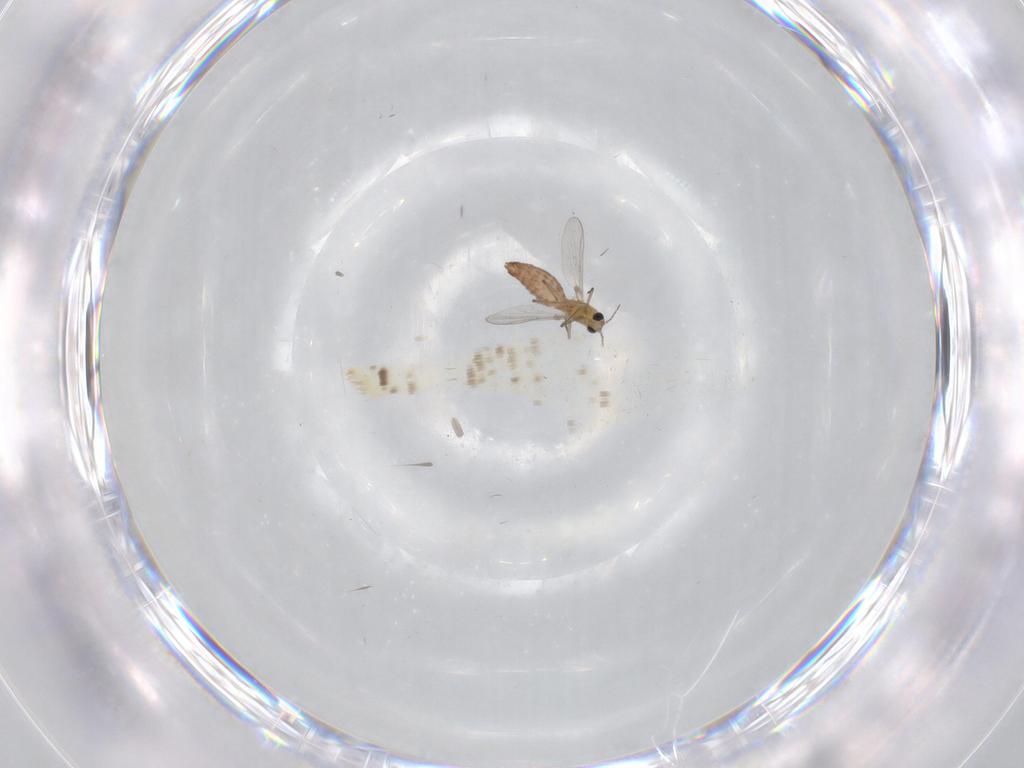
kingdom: Animalia
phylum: Arthropoda
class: Insecta
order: Diptera
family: Chironomidae
